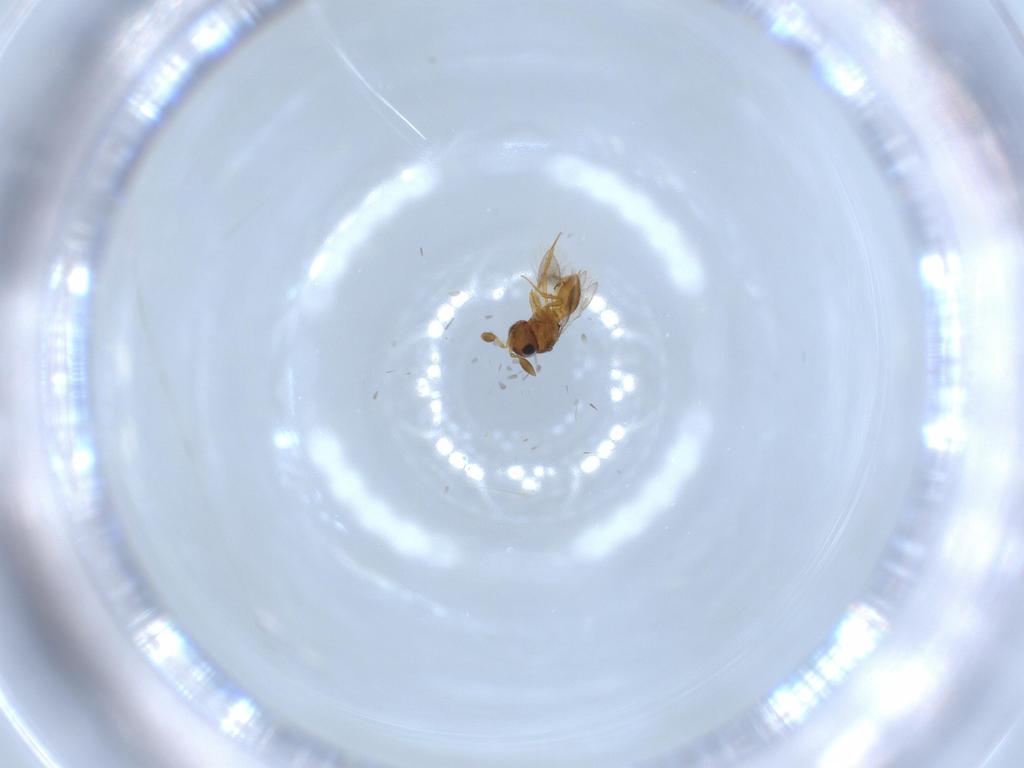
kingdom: Animalia
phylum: Arthropoda
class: Insecta
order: Hymenoptera
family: Scelionidae
